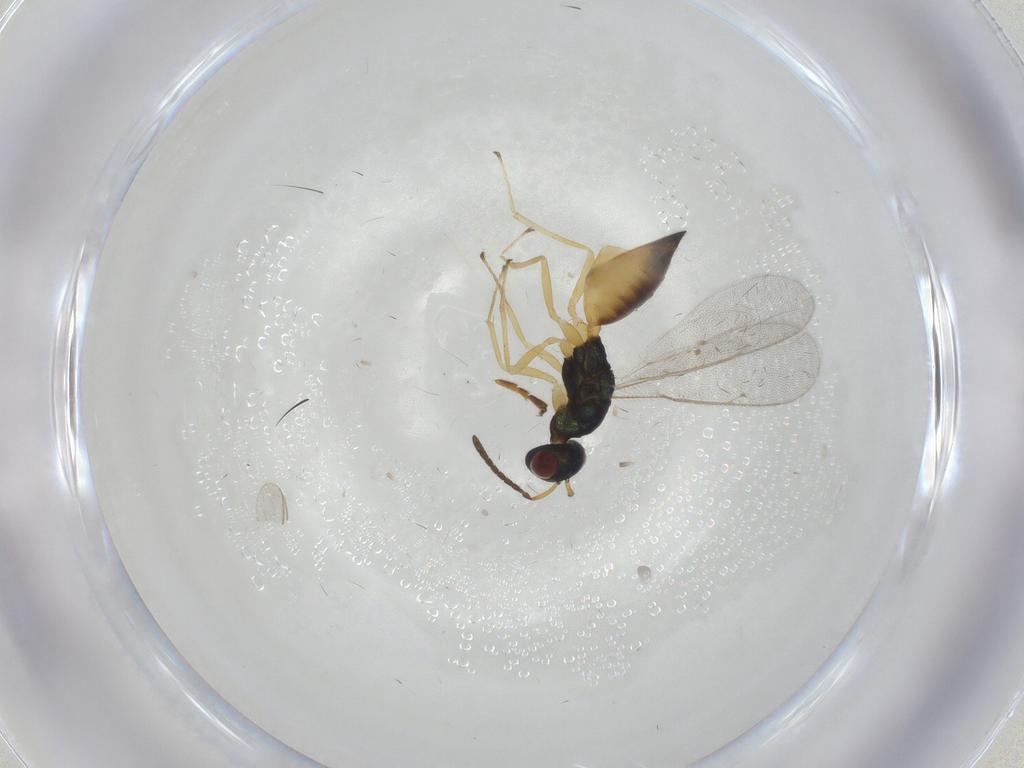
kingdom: Animalia
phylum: Arthropoda
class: Insecta
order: Hymenoptera
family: Ichneumonidae
